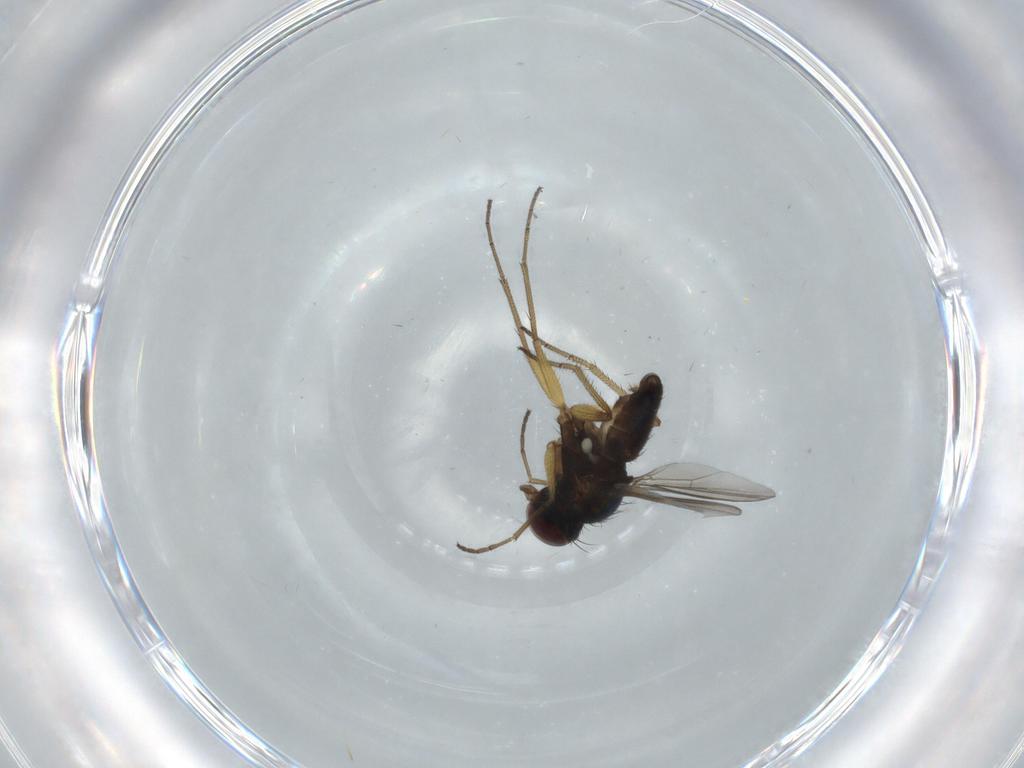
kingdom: Animalia
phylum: Arthropoda
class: Insecta
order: Diptera
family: Dolichopodidae
